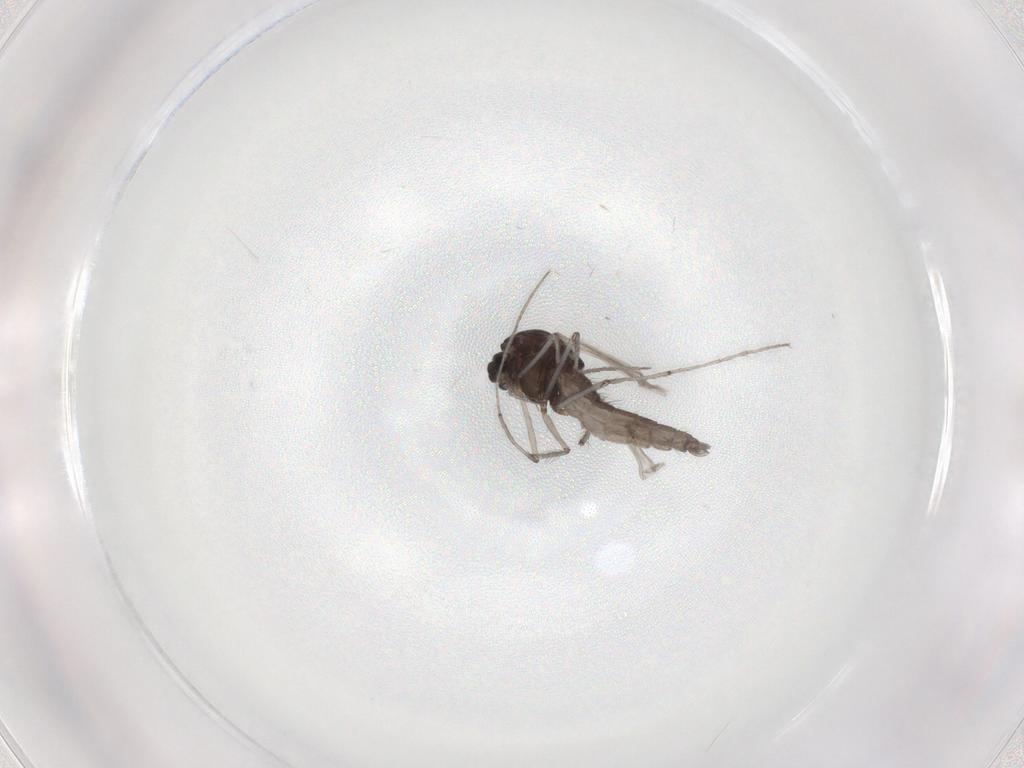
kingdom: Animalia
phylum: Arthropoda
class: Insecta
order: Diptera
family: Chironomidae
